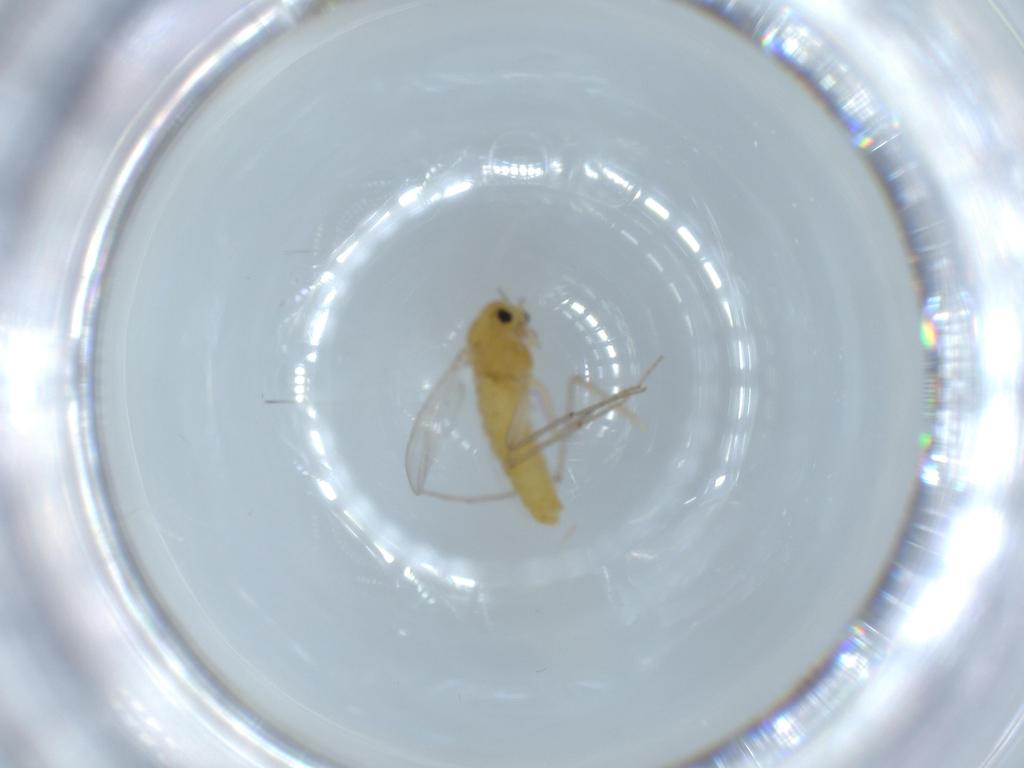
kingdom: Animalia
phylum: Arthropoda
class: Insecta
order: Diptera
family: Chironomidae
